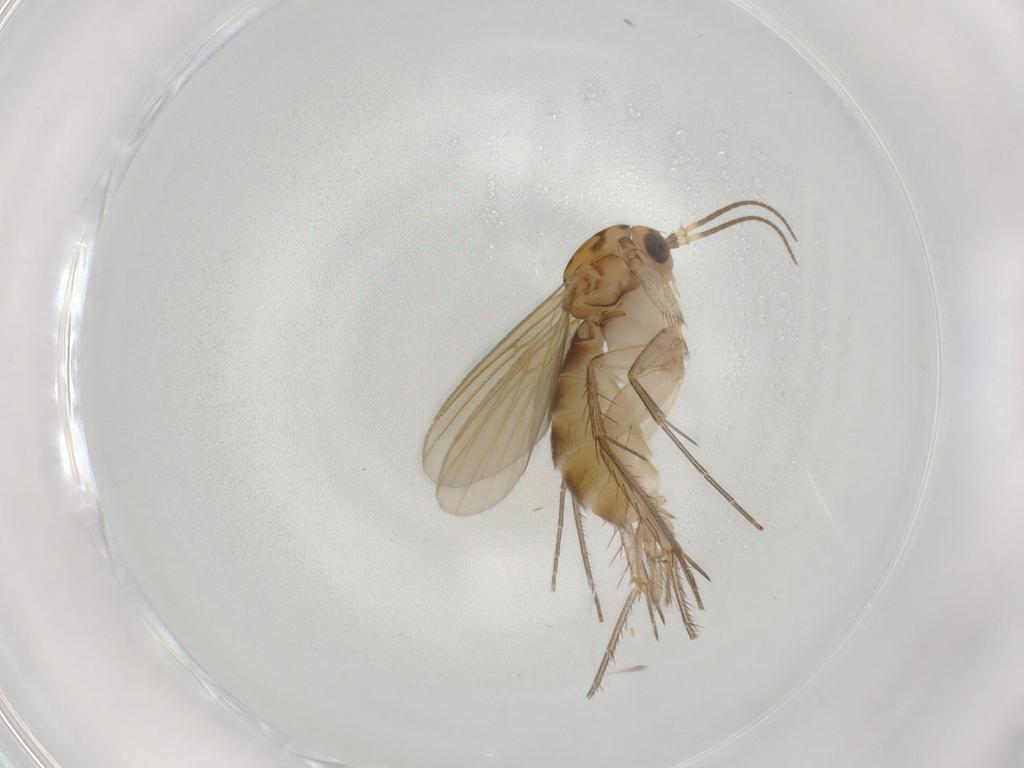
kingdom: Animalia
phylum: Arthropoda
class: Insecta
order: Diptera
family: Mycetophilidae
